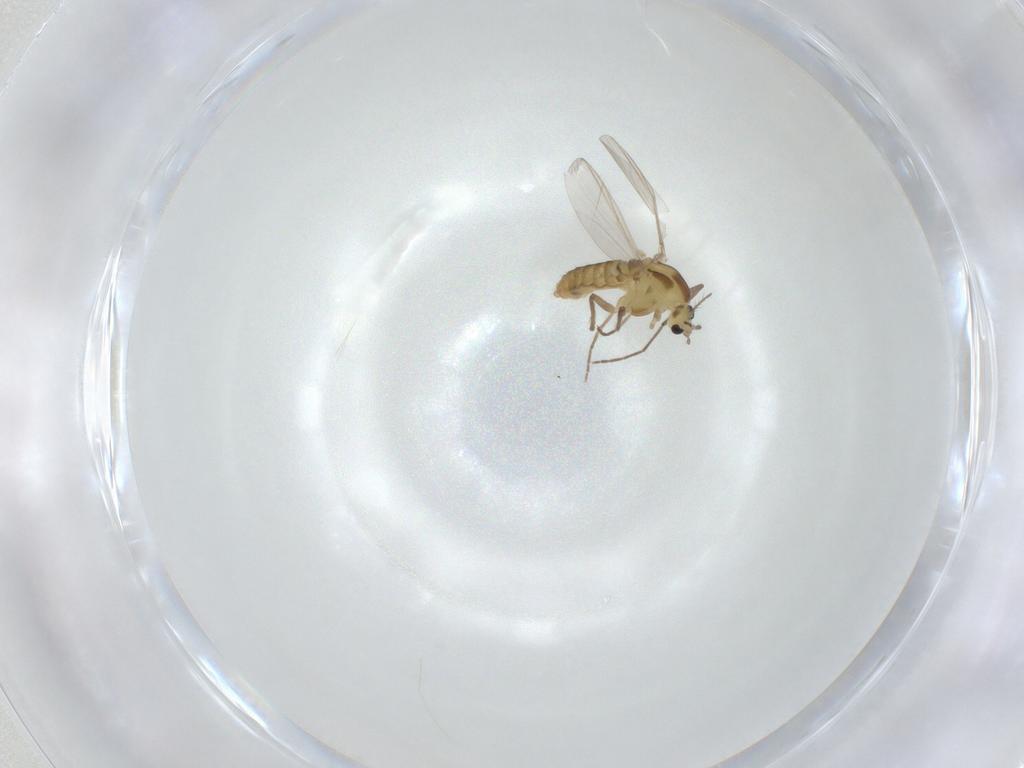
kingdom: Animalia
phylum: Arthropoda
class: Insecta
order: Diptera
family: Chironomidae
